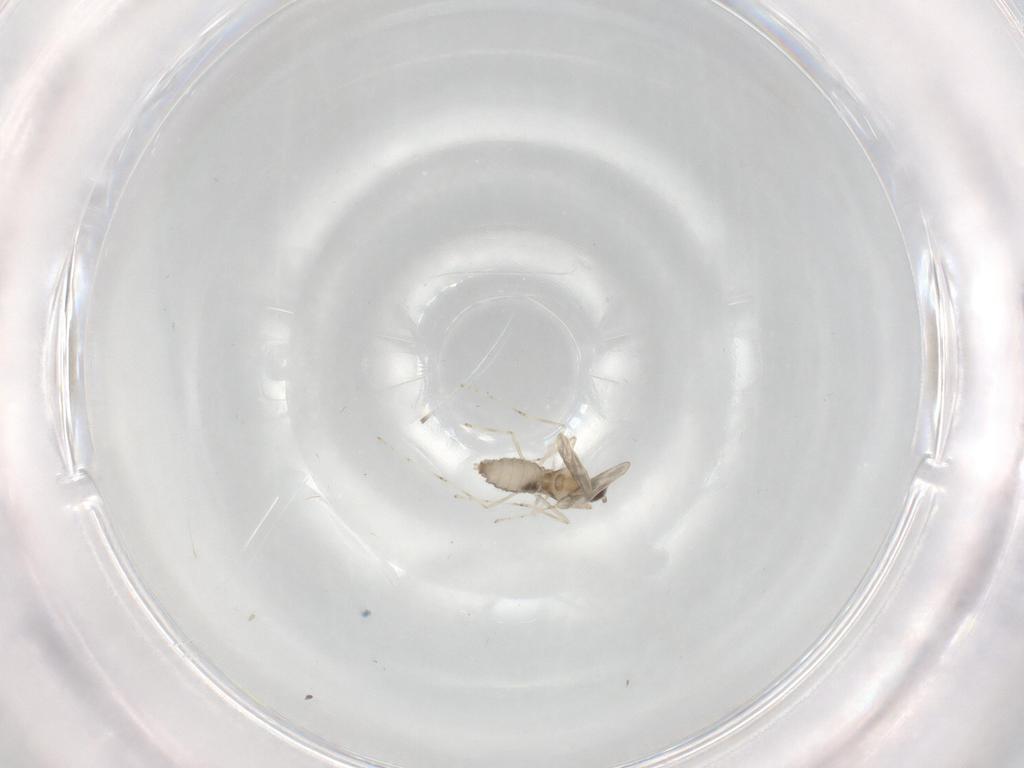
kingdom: Animalia
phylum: Arthropoda
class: Insecta
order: Diptera
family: Cecidomyiidae
